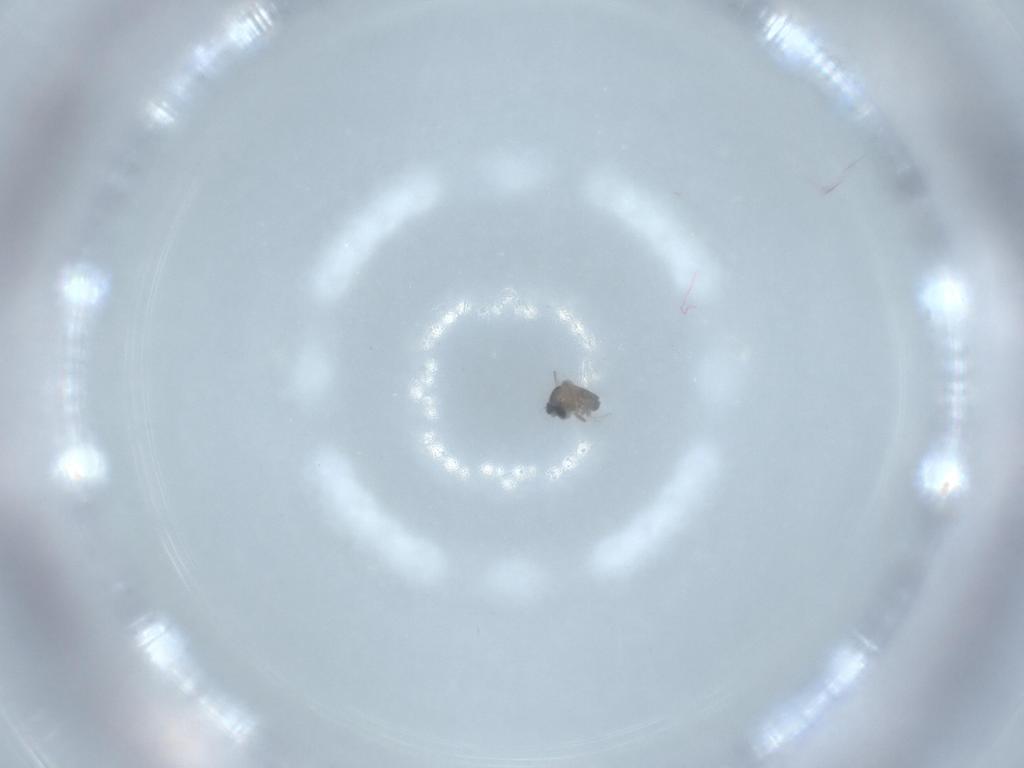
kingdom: Animalia
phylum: Arthropoda
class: Insecta
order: Diptera
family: Cecidomyiidae
